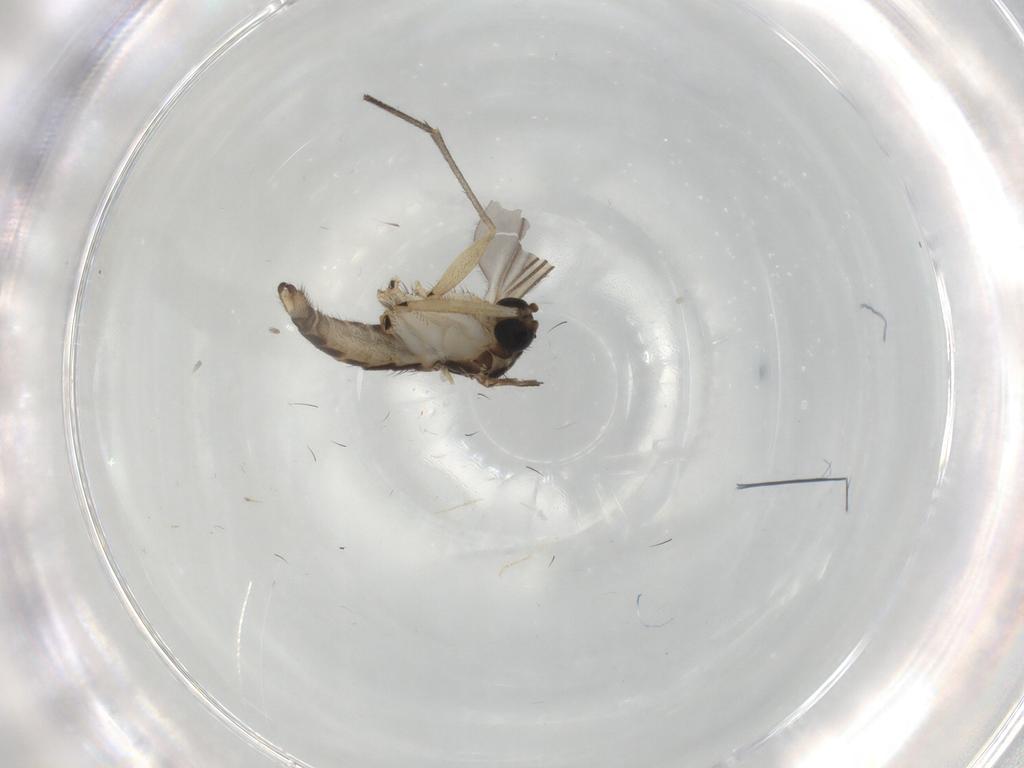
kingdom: Animalia
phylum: Arthropoda
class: Insecta
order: Diptera
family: Sciaridae
